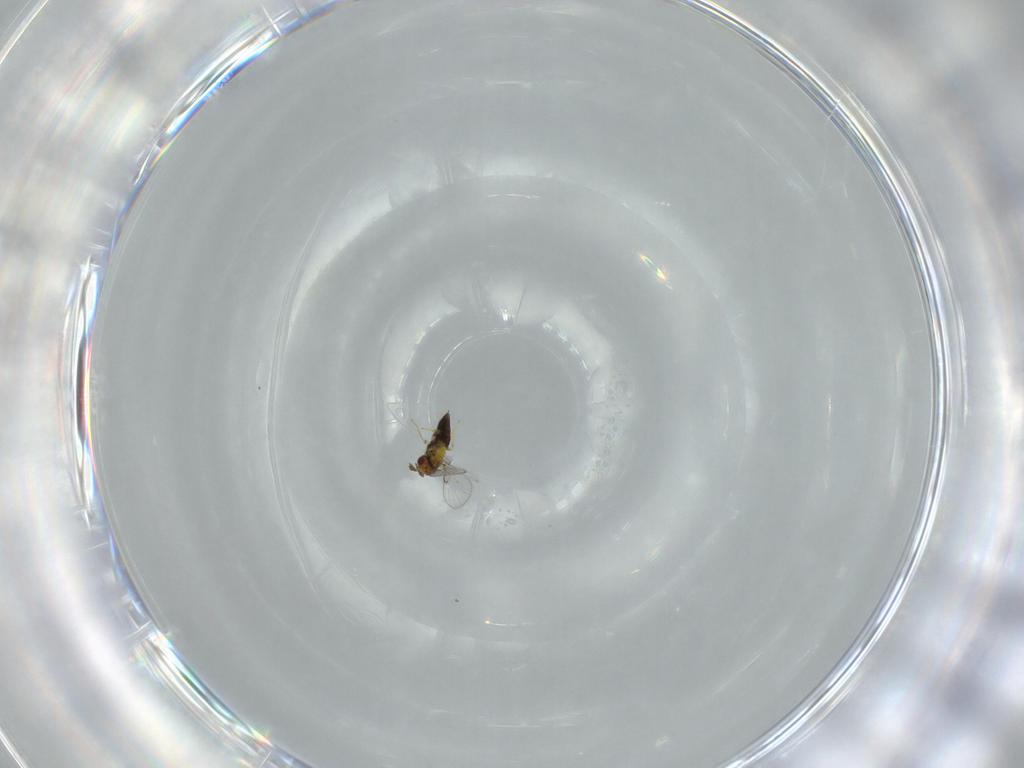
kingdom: Animalia
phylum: Arthropoda
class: Insecta
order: Hymenoptera
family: Trichogrammatidae
